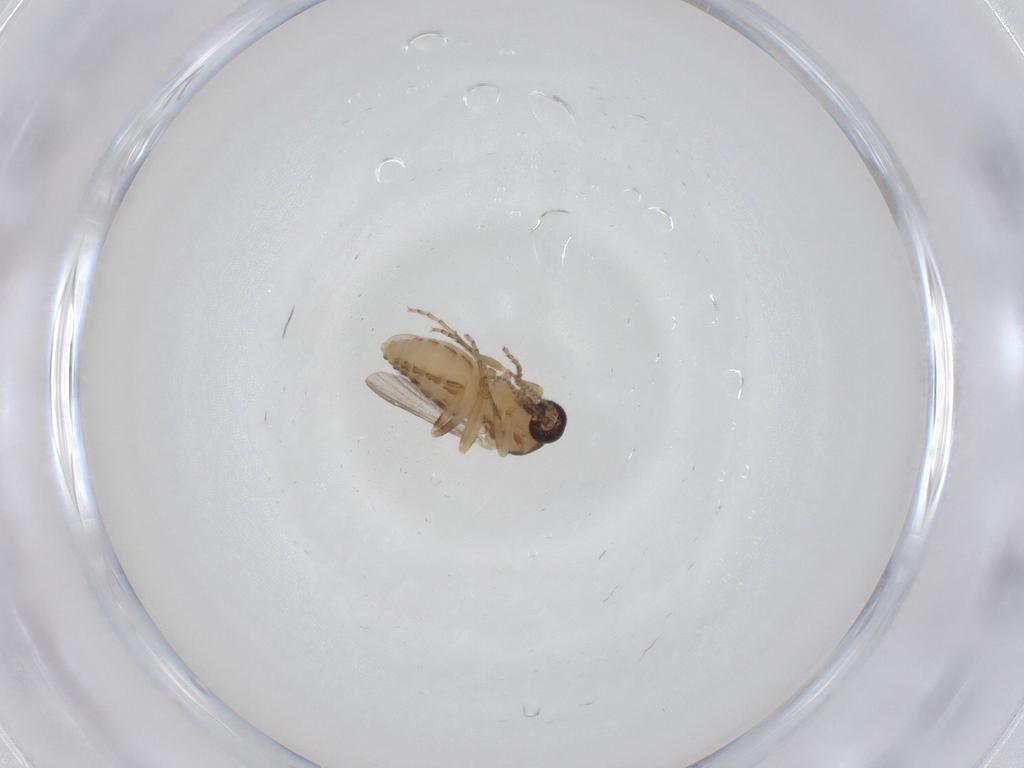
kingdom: Animalia
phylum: Arthropoda
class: Insecta
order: Diptera
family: Ceratopogonidae
